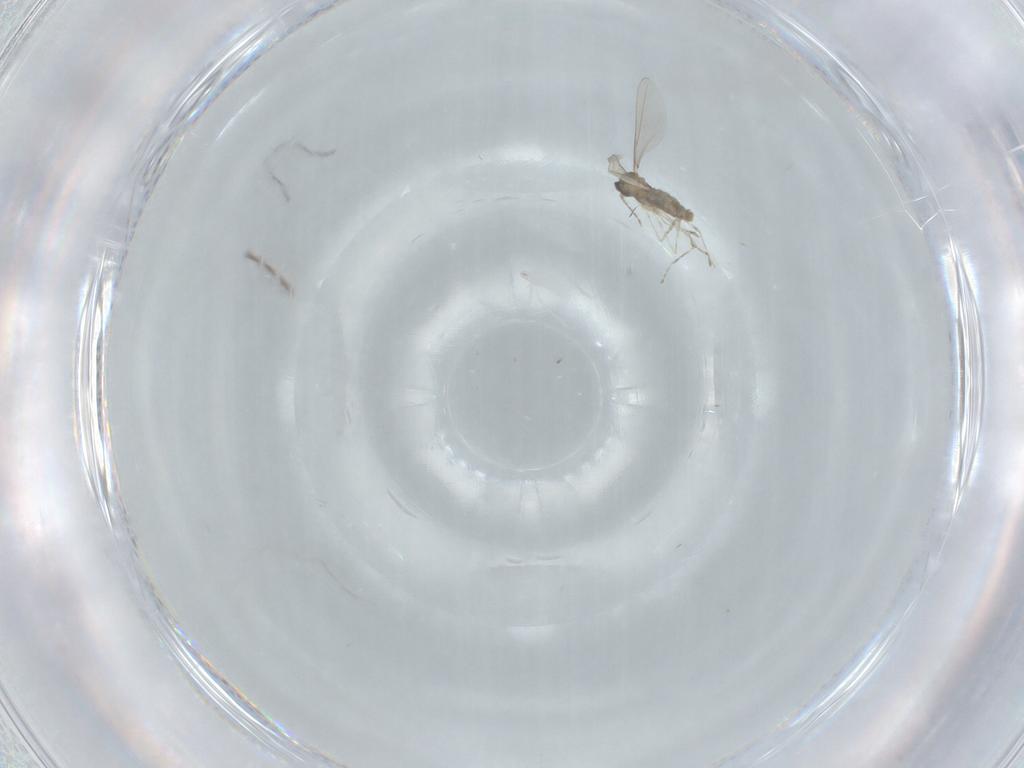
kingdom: Animalia
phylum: Arthropoda
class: Insecta
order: Diptera
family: Cecidomyiidae
